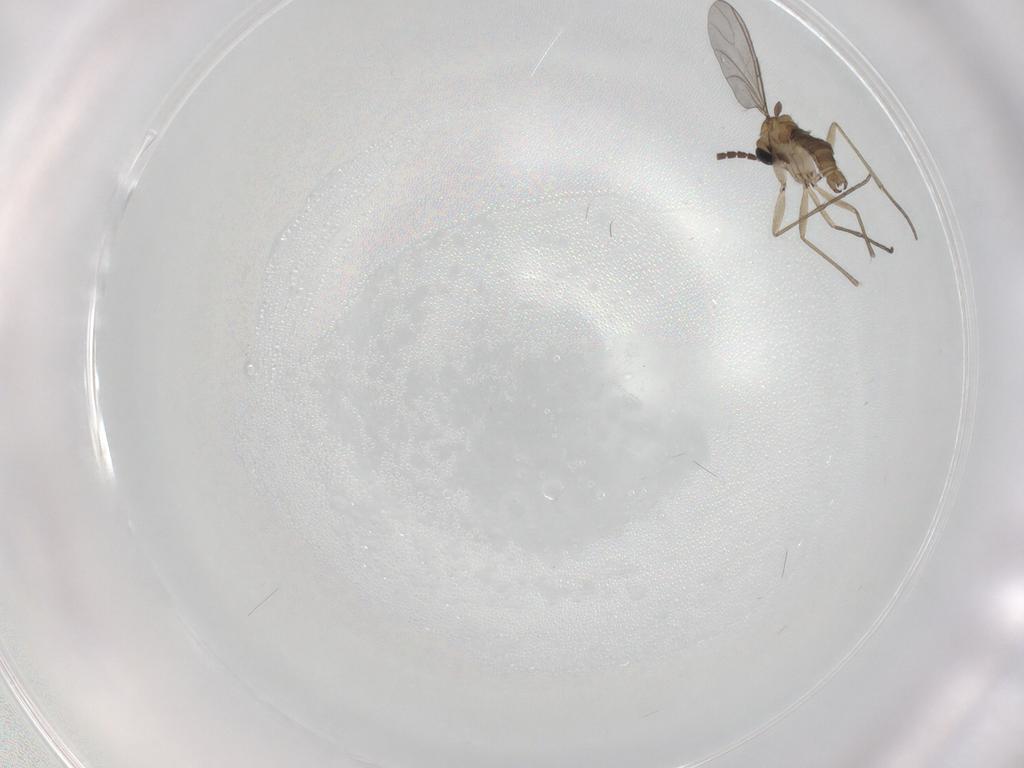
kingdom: Animalia
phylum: Arthropoda
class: Insecta
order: Diptera
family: Sciaridae
